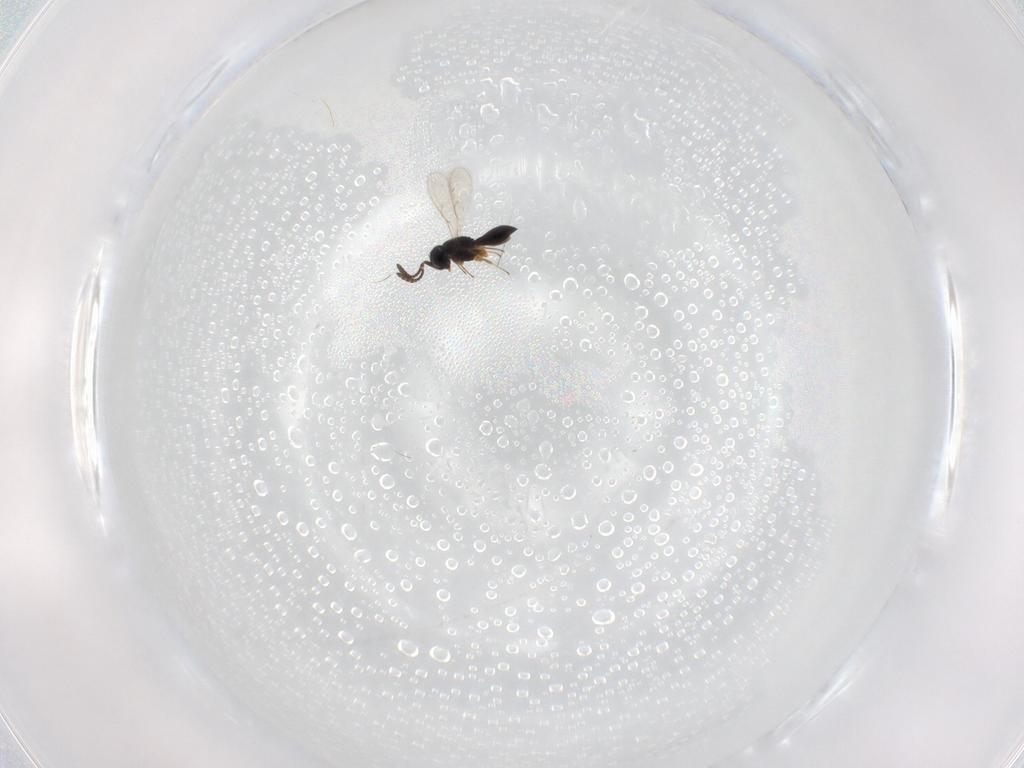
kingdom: Animalia
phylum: Arthropoda
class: Insecta
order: Hymenoptera
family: Scelionidae
